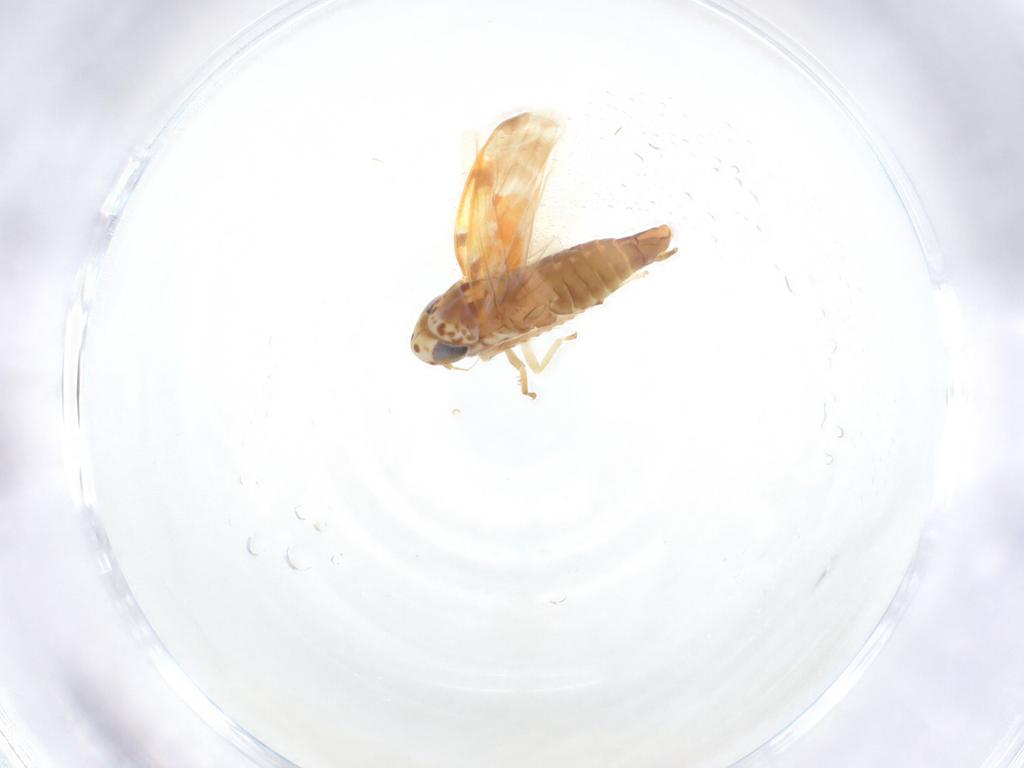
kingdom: Animalia
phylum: Arthropoda
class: Insecta
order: Hemiptera
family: Cicadellidae
